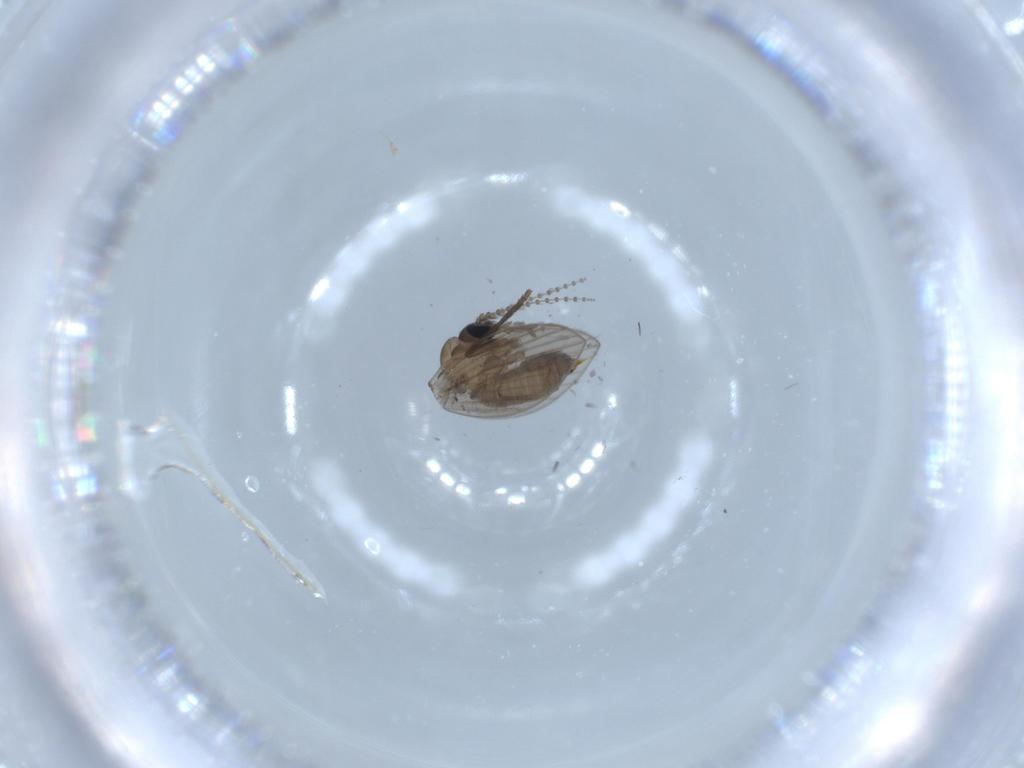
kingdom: Animalia
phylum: Arthropoda
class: Insecta
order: Diptera
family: Psychodidae
